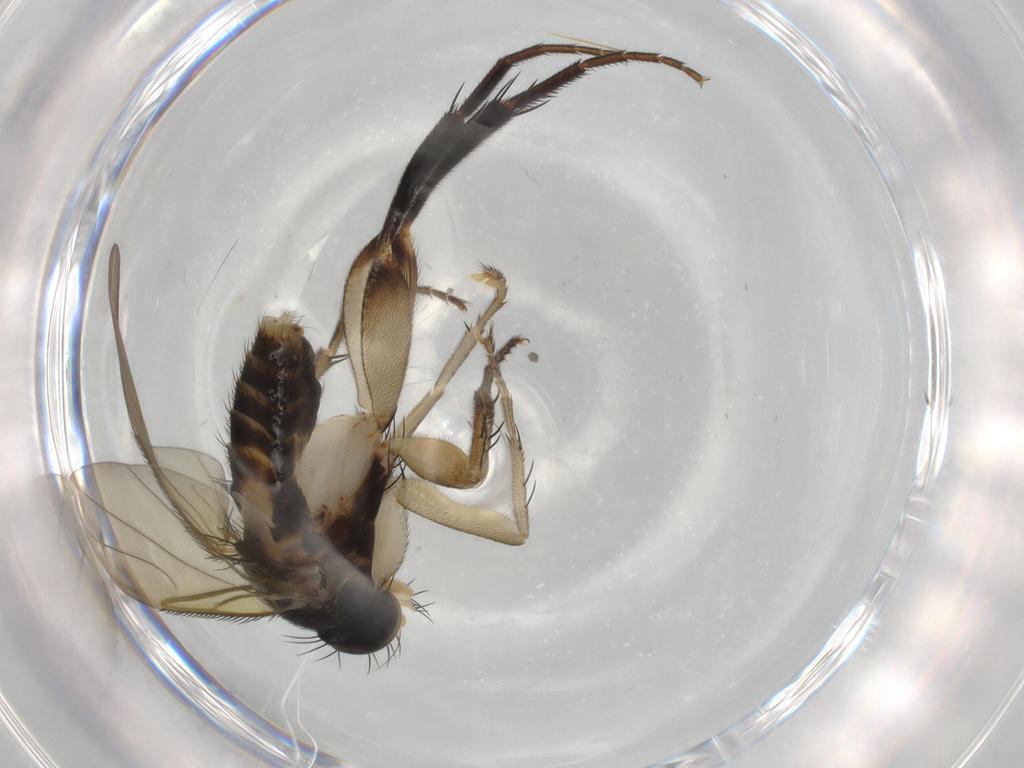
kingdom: Animalia
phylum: Arthropoda
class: Insecta
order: Diptera
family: Phoridae
